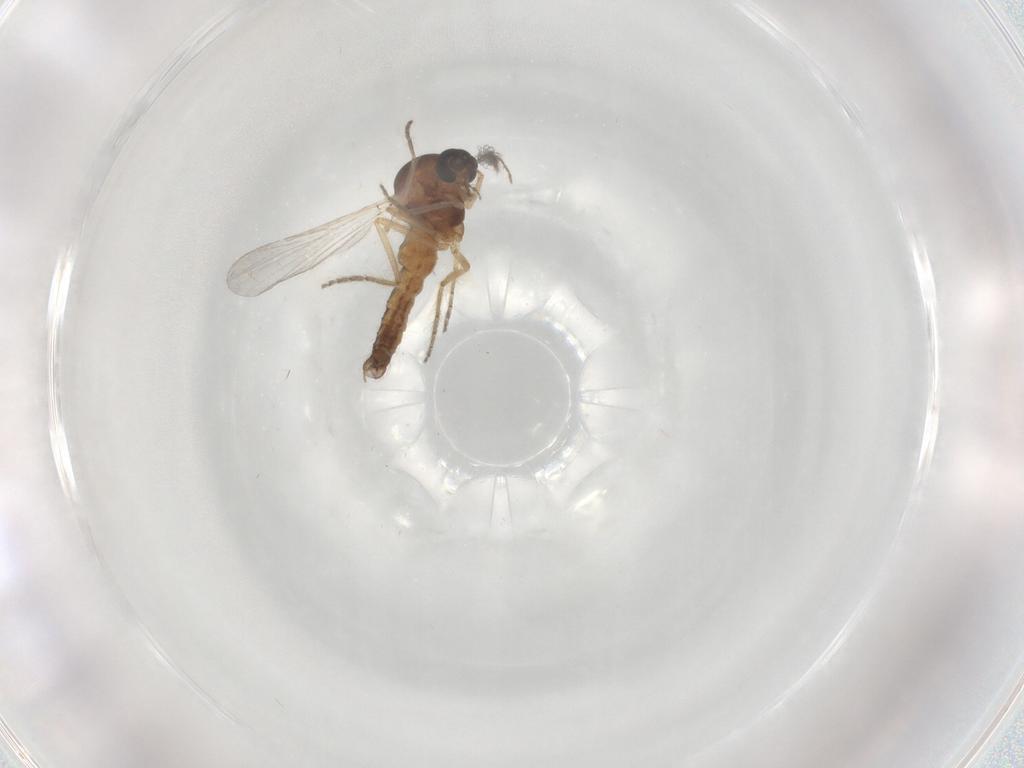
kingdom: Animalia
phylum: Arthropoda
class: Insecta
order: Diptera
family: Ceratopogonidae
